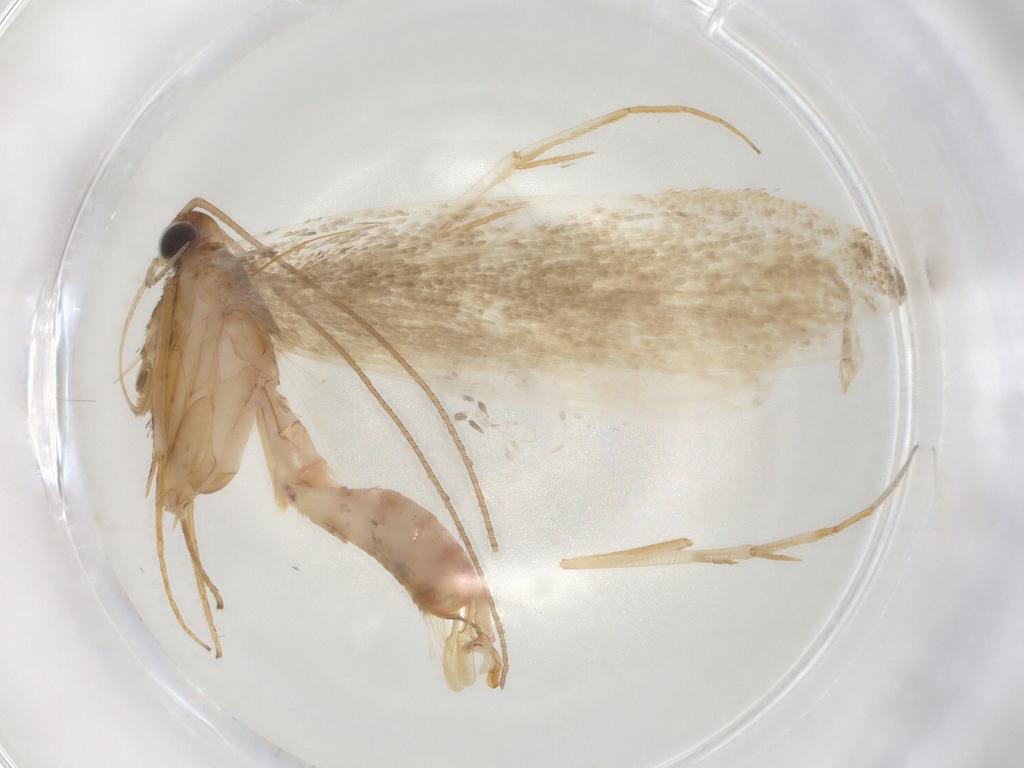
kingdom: Animalia
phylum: Arthropoda
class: Insecta
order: Lepidoptera
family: Crambidae
